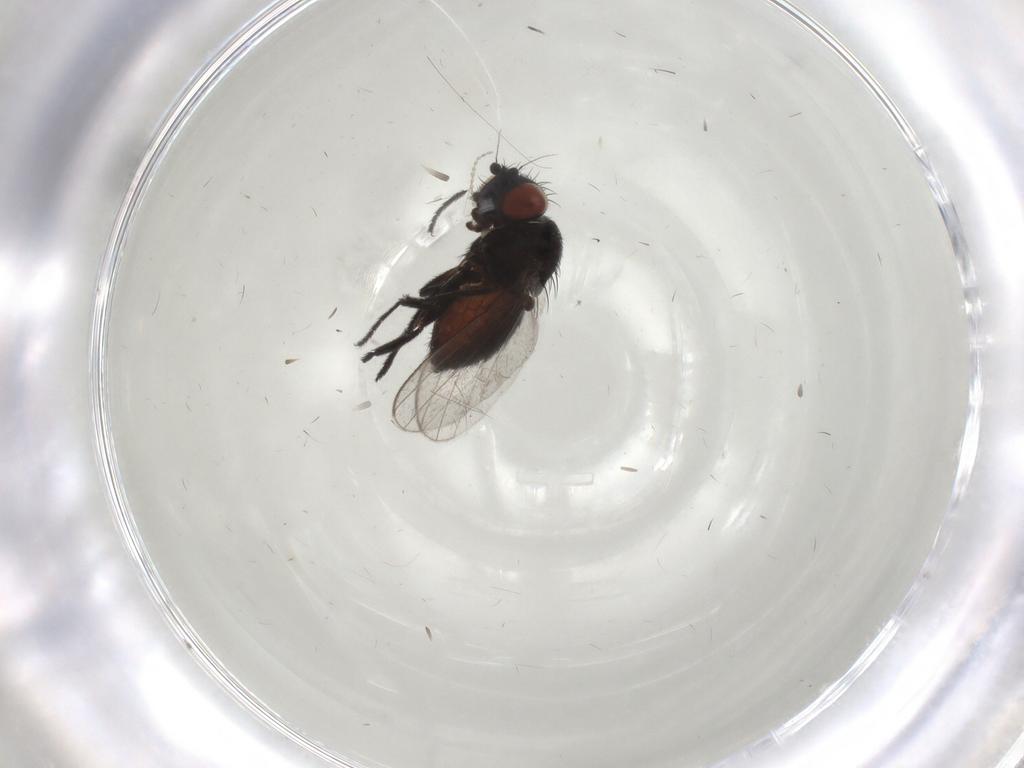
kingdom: Animalia
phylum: Arthropoda
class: Insecta
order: Diptera
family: Milichiidae
